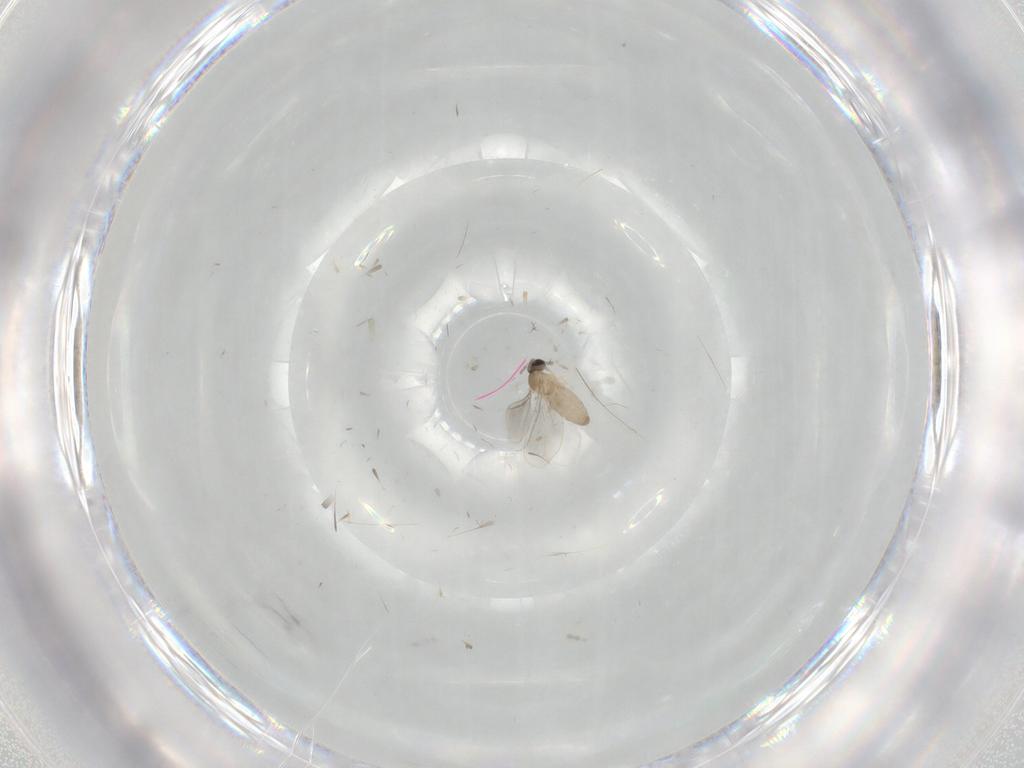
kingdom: Animalia
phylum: Arthropoda
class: Insecta
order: Diptera
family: Cecidomyiidae
